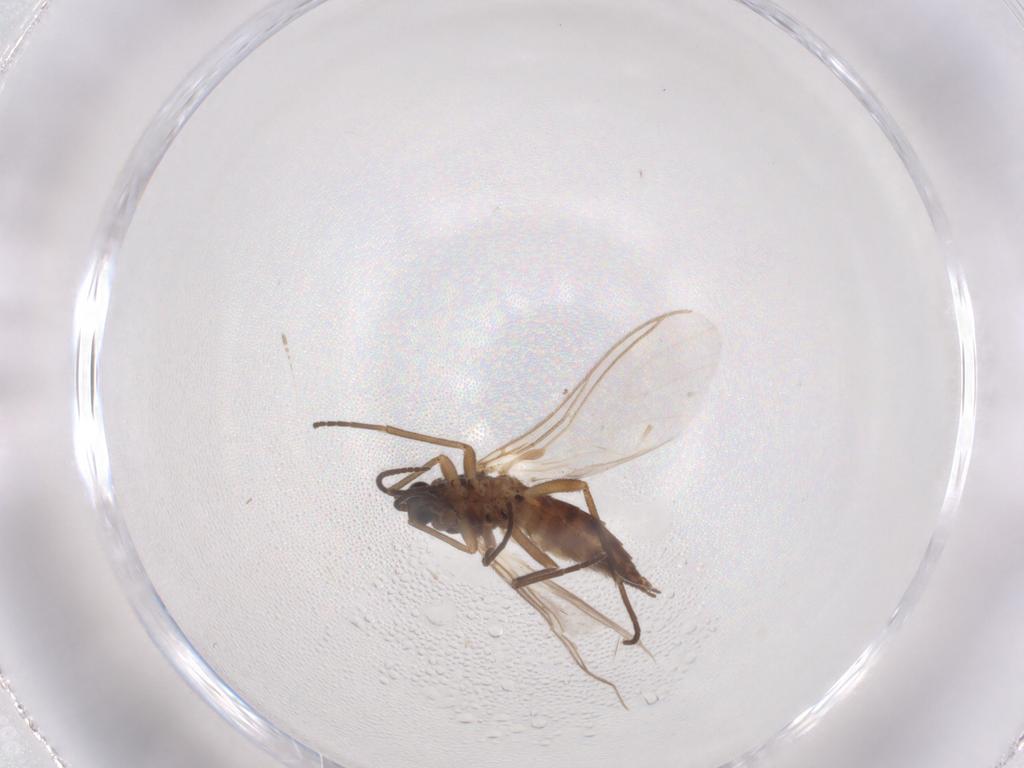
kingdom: Animalia
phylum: Arthropoda
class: Insecta
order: Diptera
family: Sciaridae
